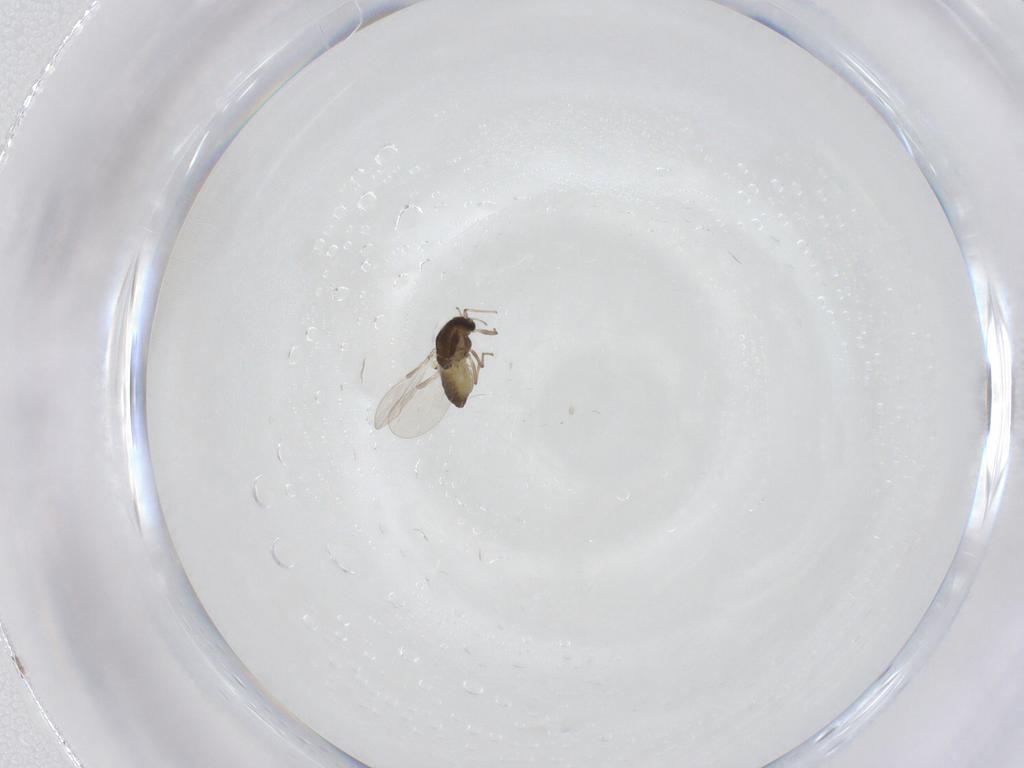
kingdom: Animalia
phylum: Arthropoda
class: Insecta
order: Diptera
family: Chironomidae
